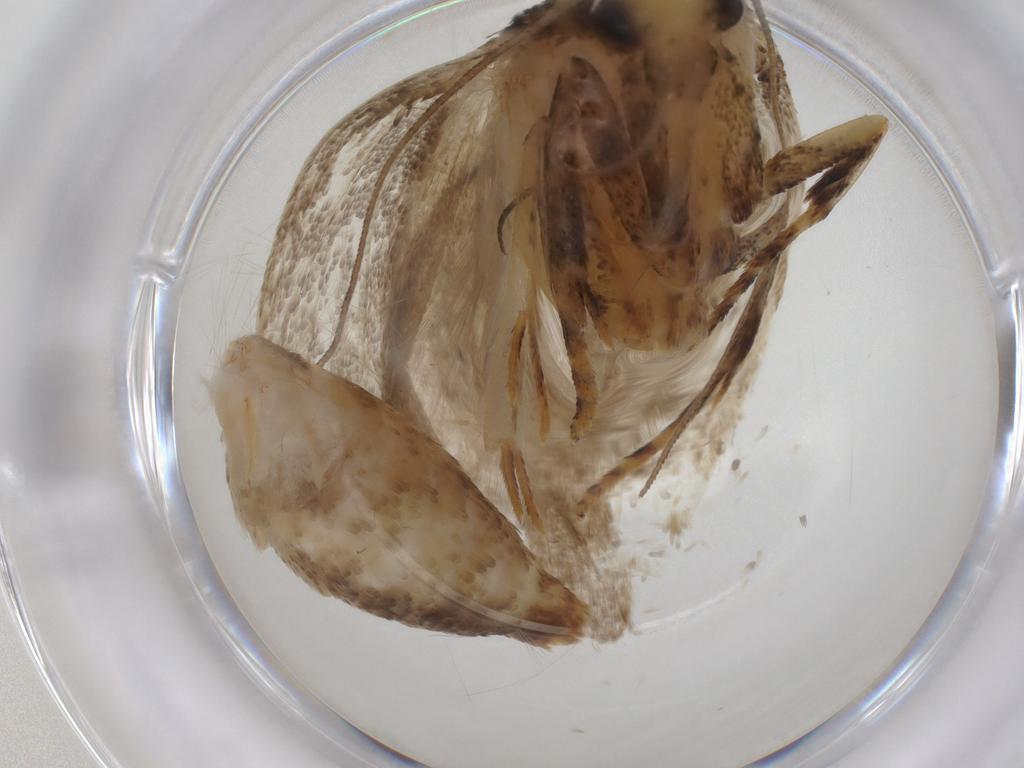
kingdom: Animalia
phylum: Arthropoda
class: Insecta
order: Lepidoptera
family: Gelechiidae
